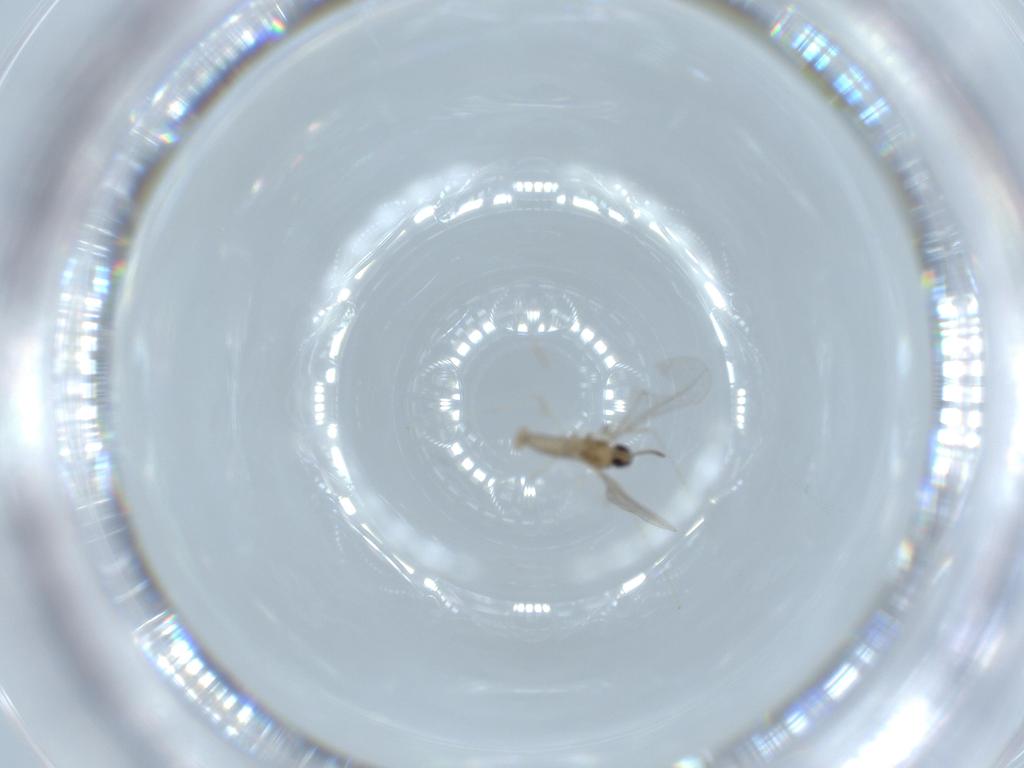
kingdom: Animalia
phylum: Arthropoda
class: Insecta
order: Diptera
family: Cecidomyiidae
